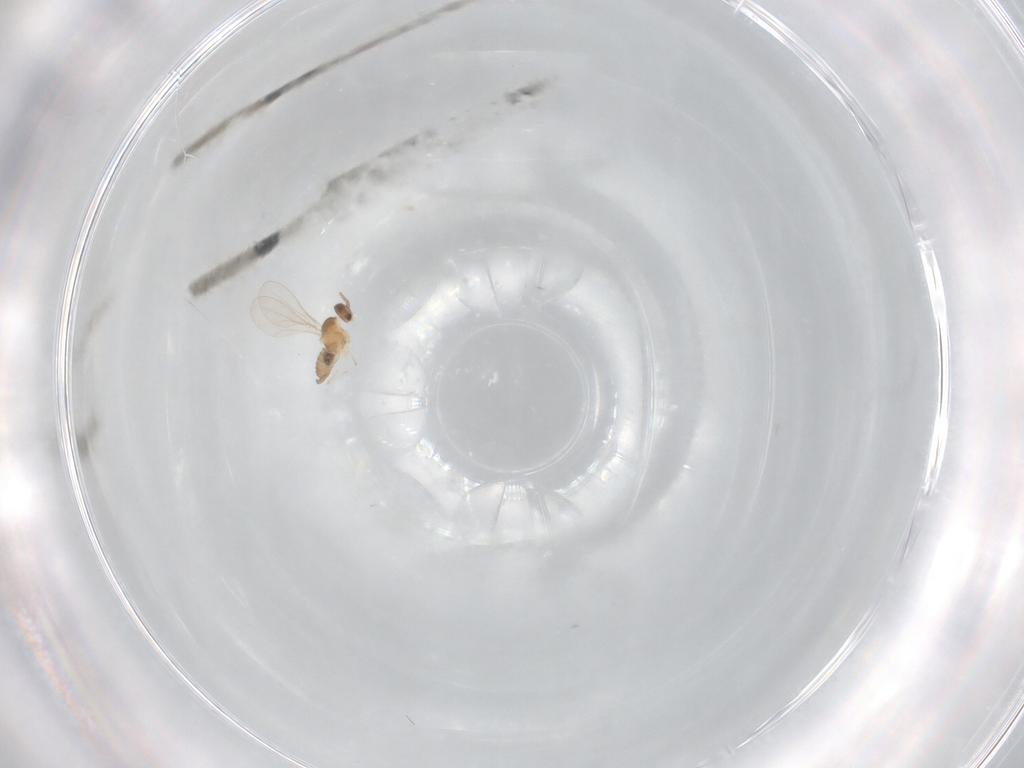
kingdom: Animalia
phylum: Arthropoda
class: Insecta
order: Diptera
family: Cecidomyiidae
